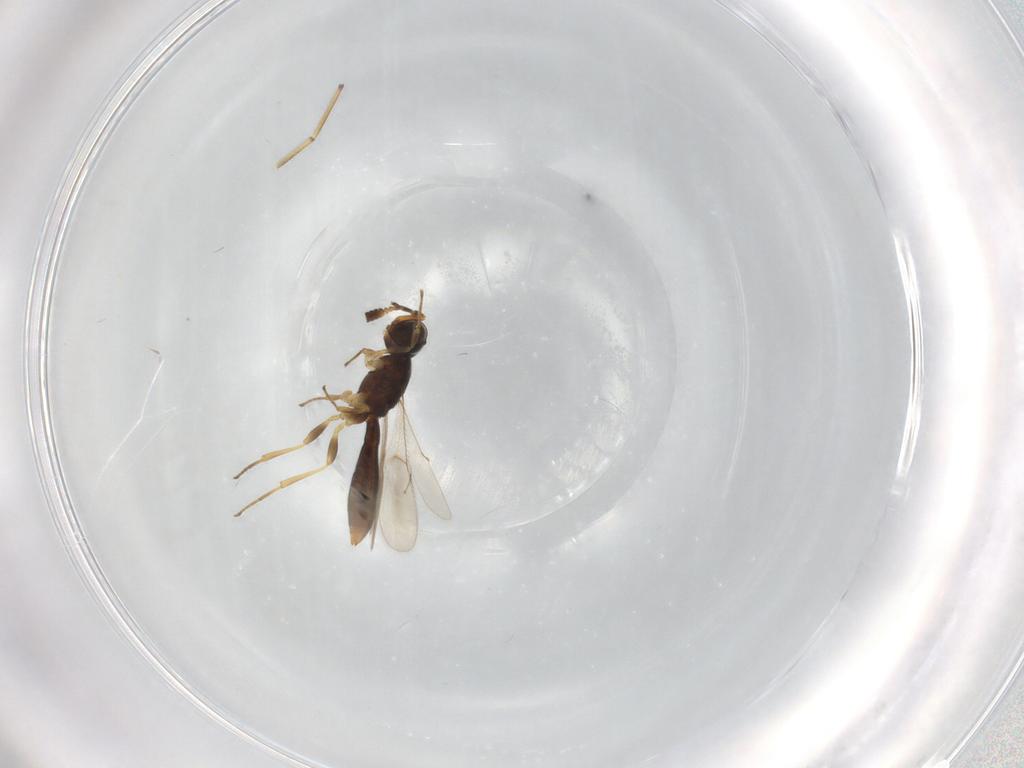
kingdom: Animalia
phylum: Arthropoda
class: Insecta
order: Hymenoptera
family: Scelionidae
